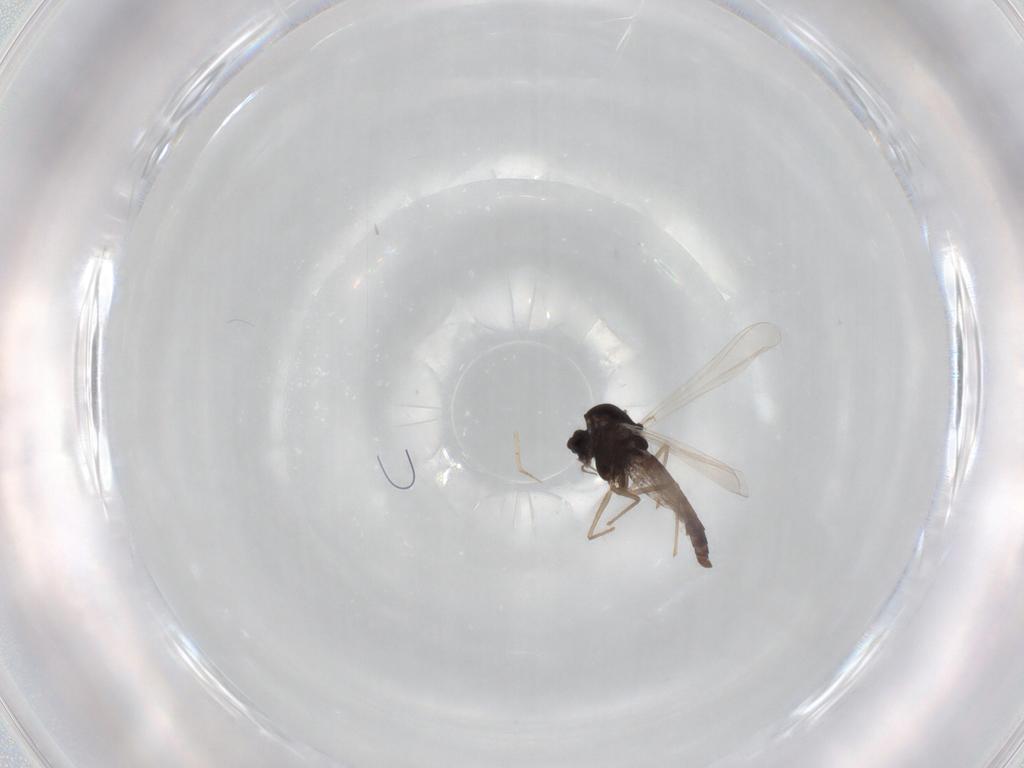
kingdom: Animalia
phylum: Arthropoda
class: Insecta
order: Diptera
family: Chironomidae
